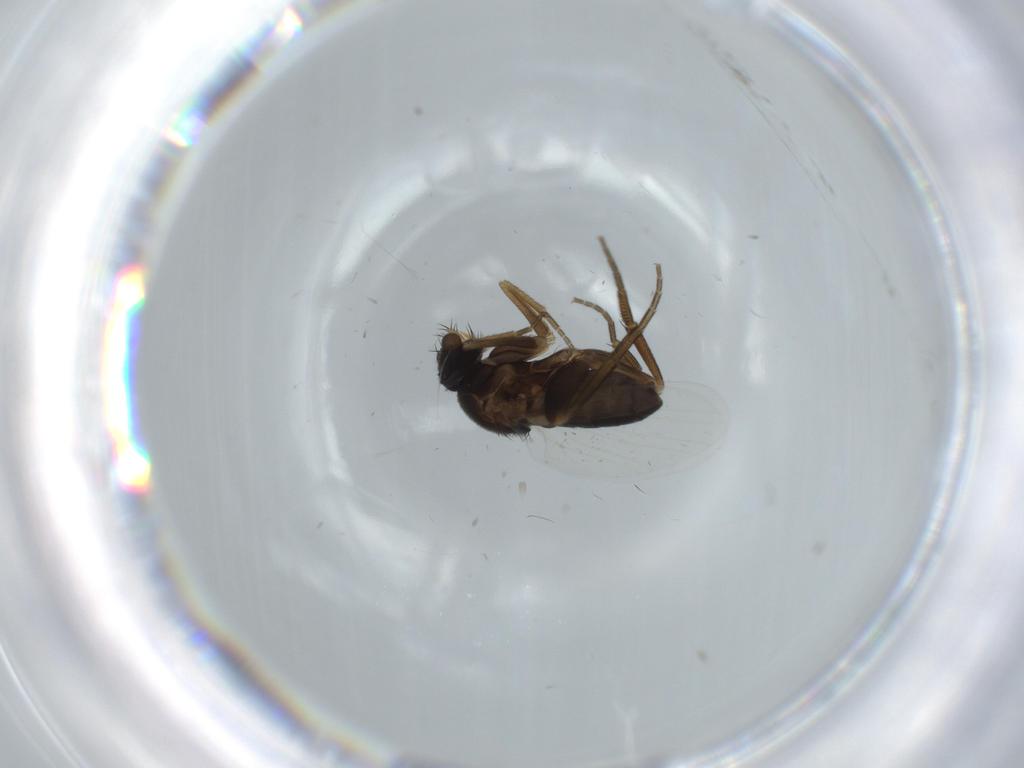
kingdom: Animalia
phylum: Arthropoda
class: Insecta
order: Diptera
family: Phoridae
